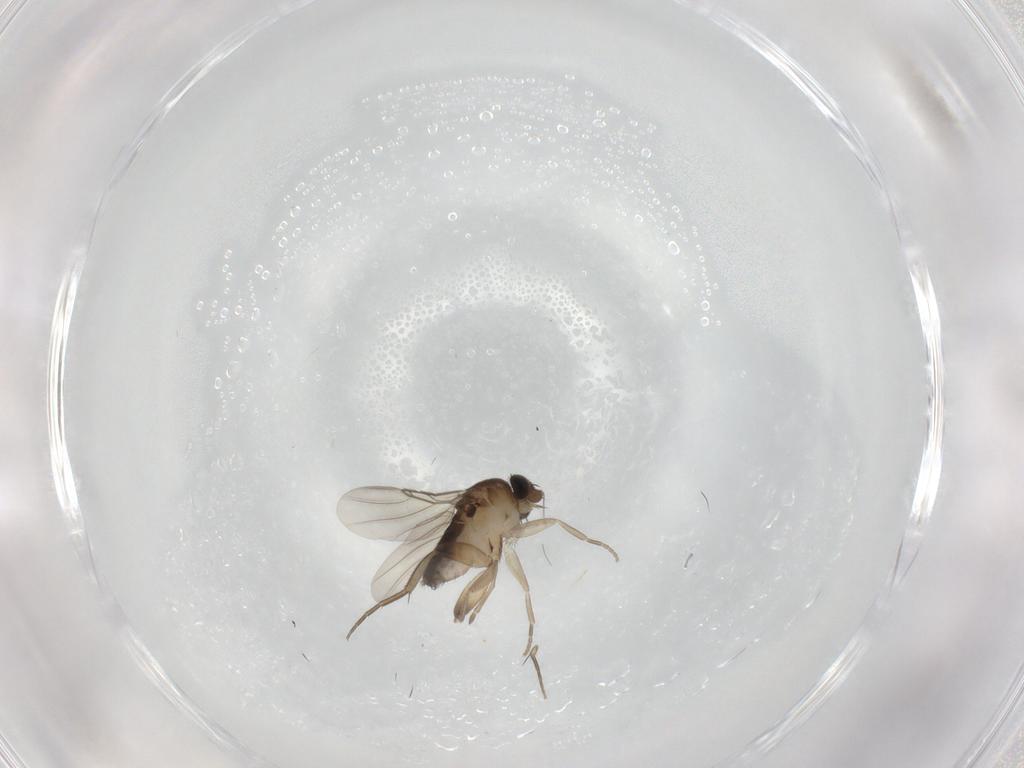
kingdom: Animalia
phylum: Arthropoda
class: Insecta
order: Diptera
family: Phoridae
